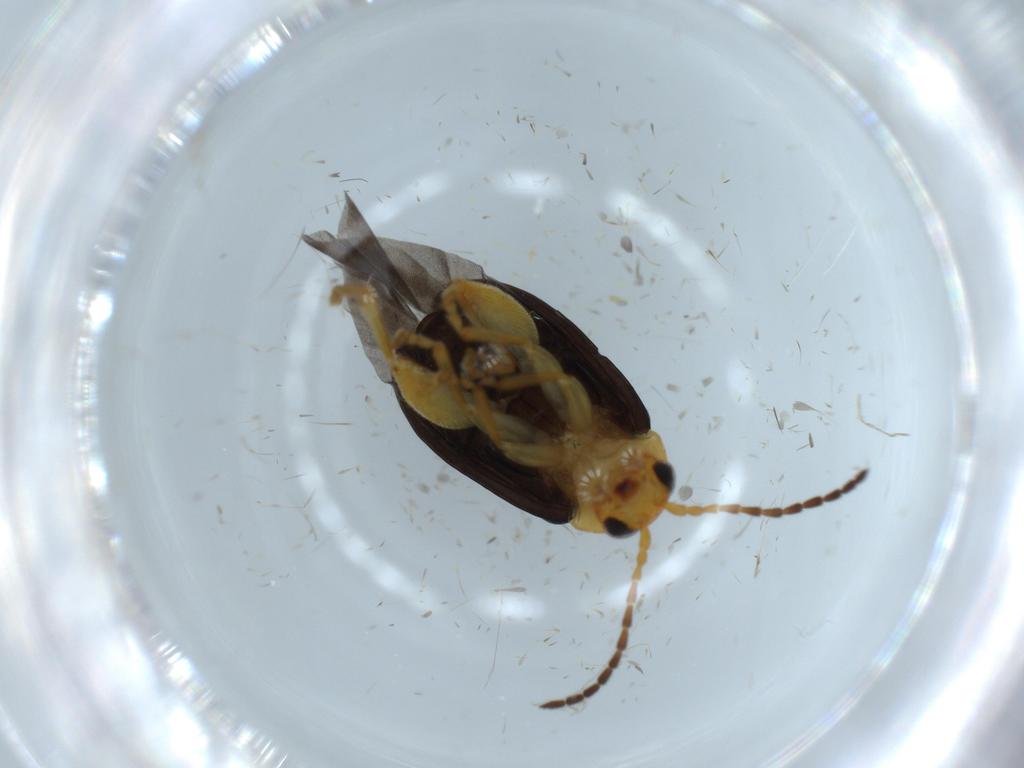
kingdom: Animalia
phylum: Arthropoda
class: Insecta
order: Coleoptera
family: Chrysomelidae
